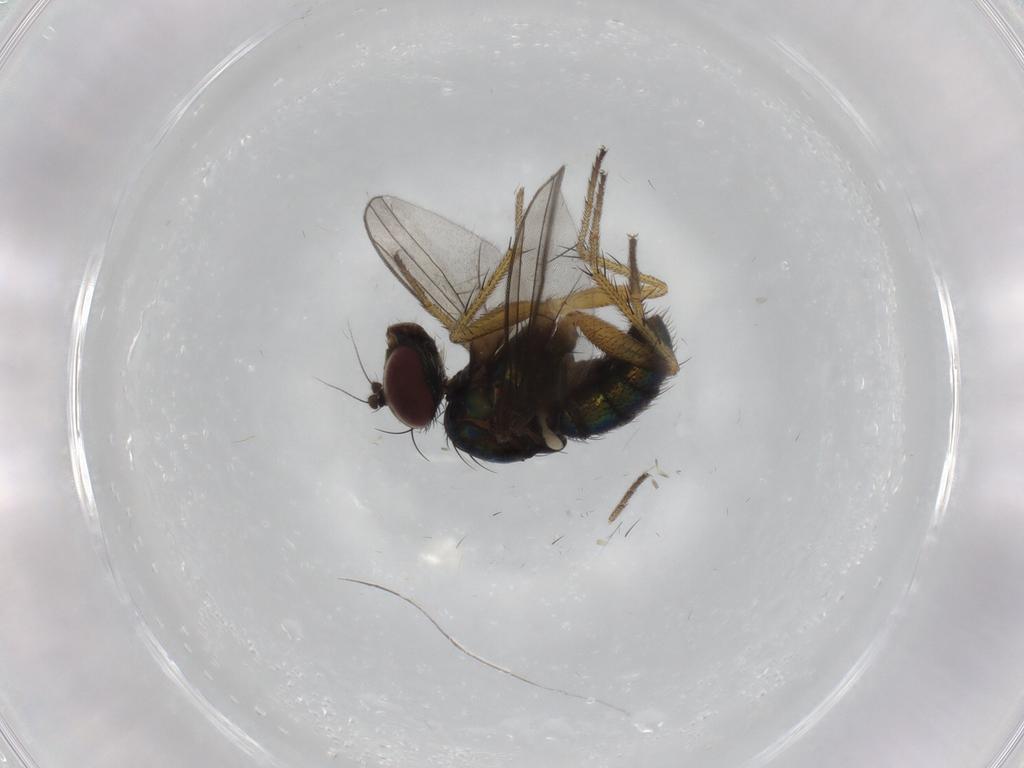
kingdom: Animalia
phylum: Arthropoda
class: Insecta
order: Diptera
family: Dolichopodidae
